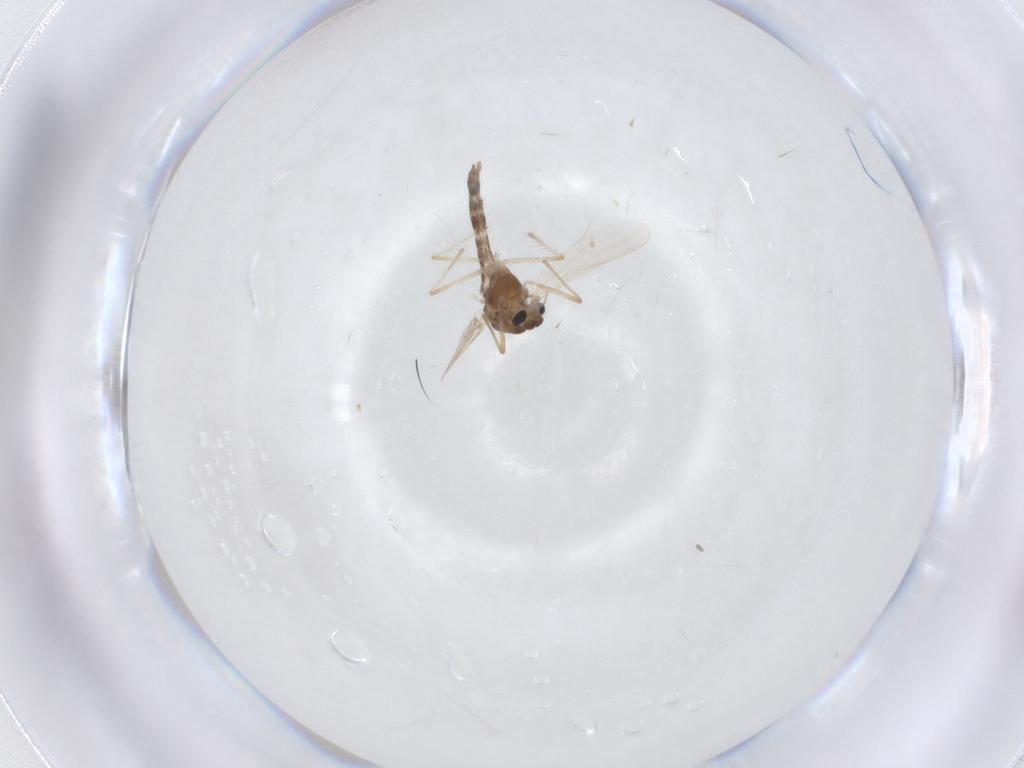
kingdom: Animalia
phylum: Arthropoda
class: Insecta
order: Diptera
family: Chironomidae
